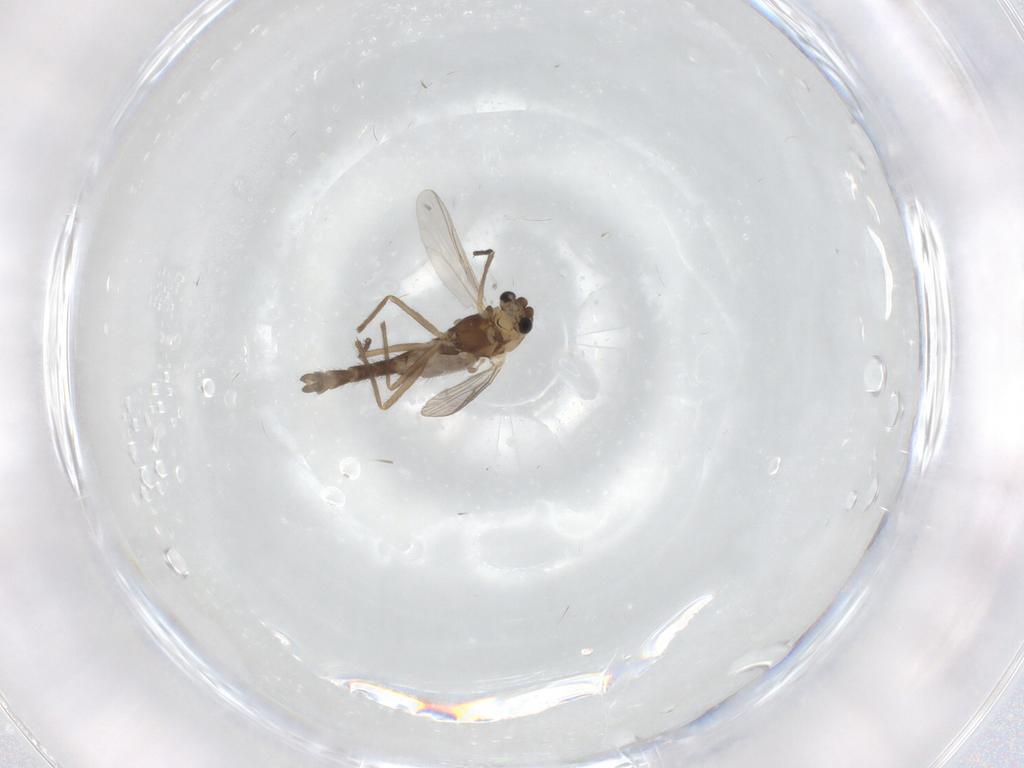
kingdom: Animalia
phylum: Arthropoda
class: Insecta
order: Diptera
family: Chironomidae
